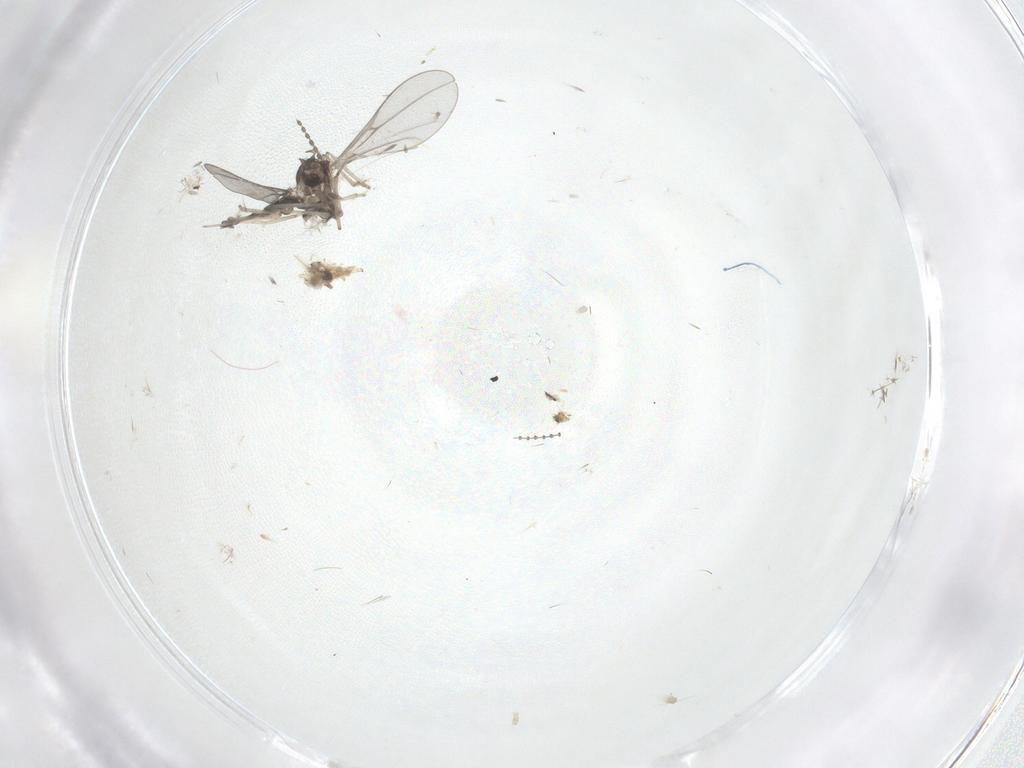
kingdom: Animalia
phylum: Arthropoda
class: Insecta
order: Diptera
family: Cecidomyiidae
